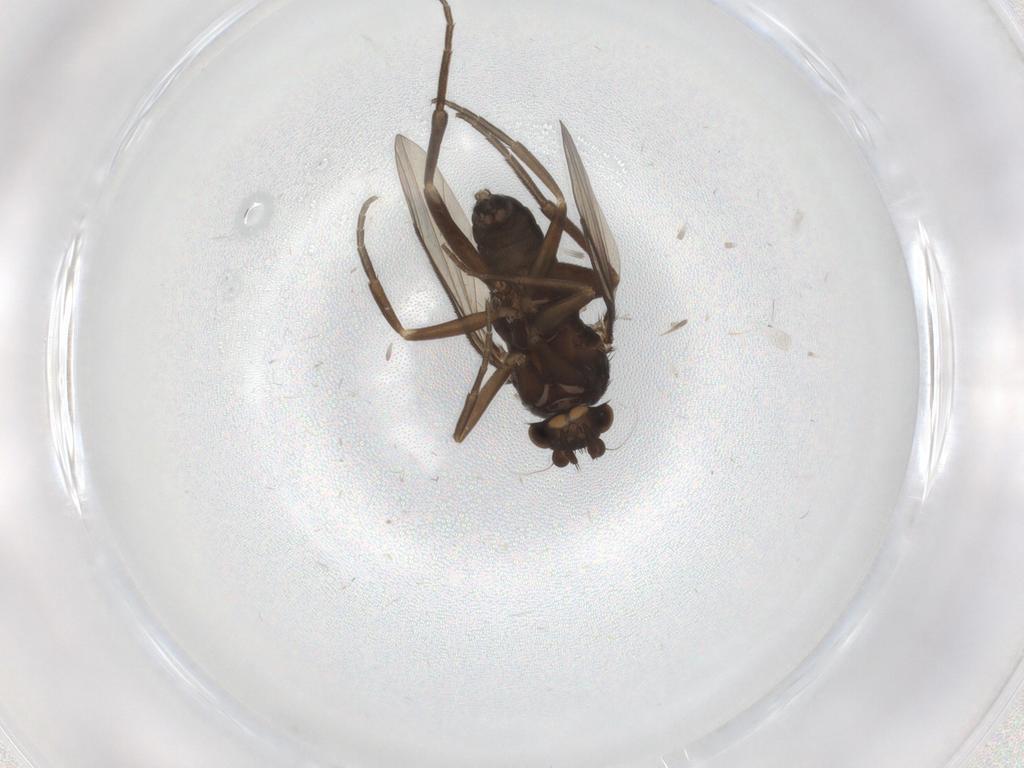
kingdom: Animalia
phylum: Arthropoda
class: Insecta
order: Diptera
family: Phoridae
